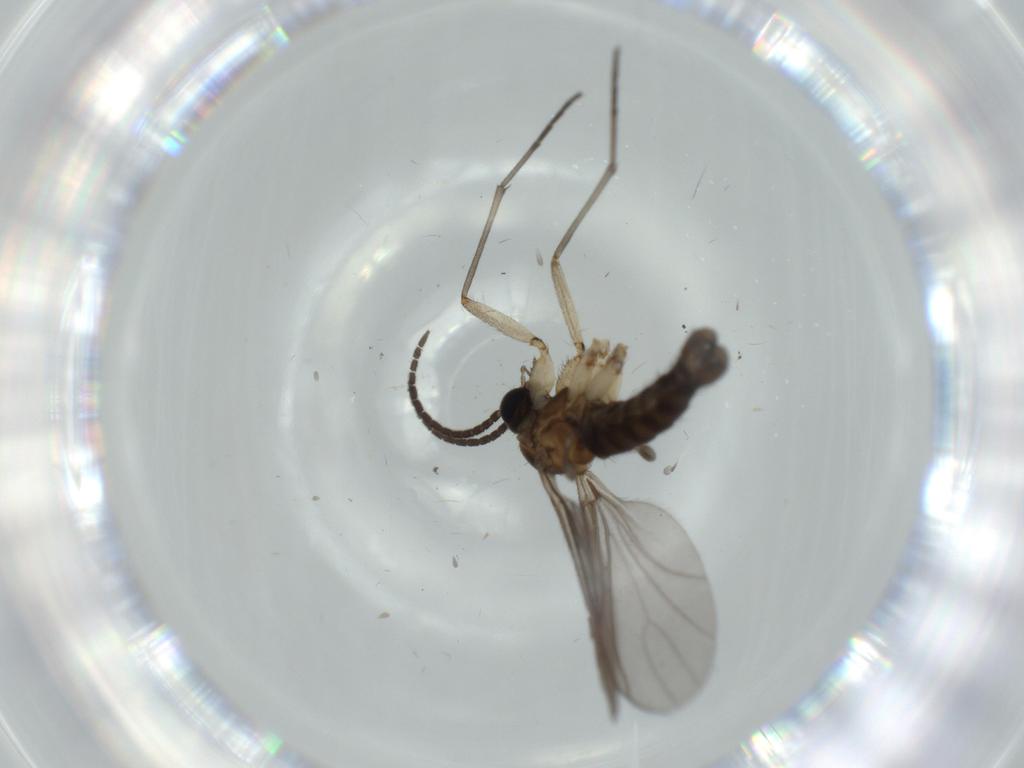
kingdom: Animalia
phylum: Arthropoda
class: Insecta
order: Diptera
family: Sciaridae
